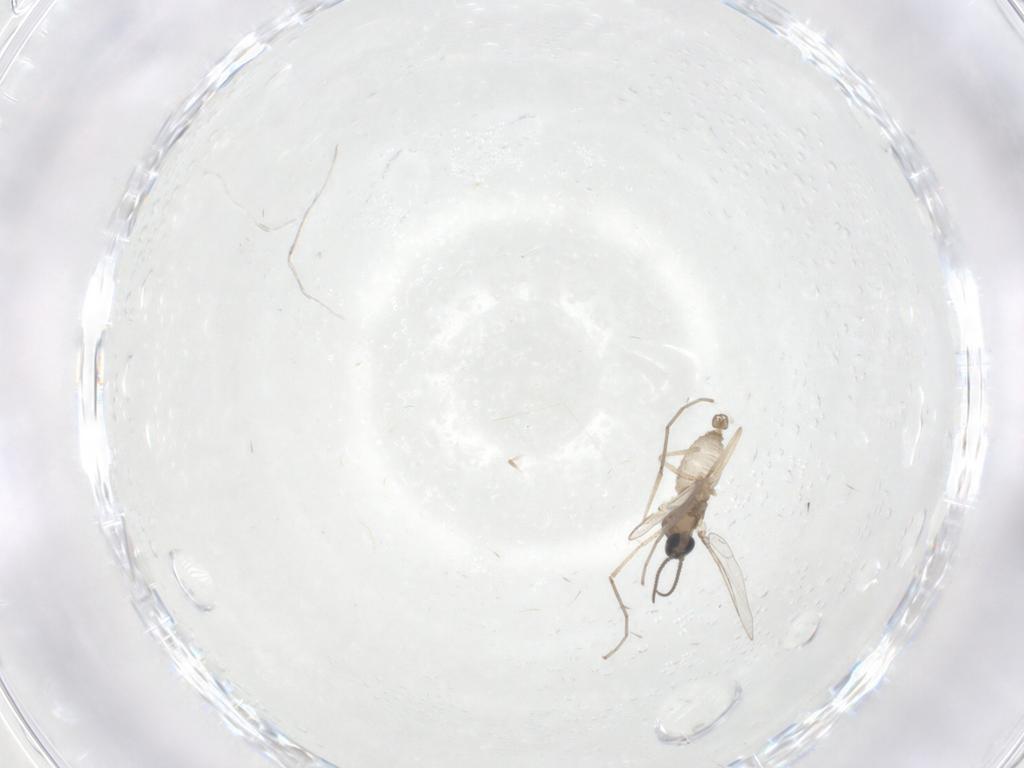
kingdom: Animalia
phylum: Arthropoda
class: Insecta
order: Diptera
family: Cecidomyiidae
